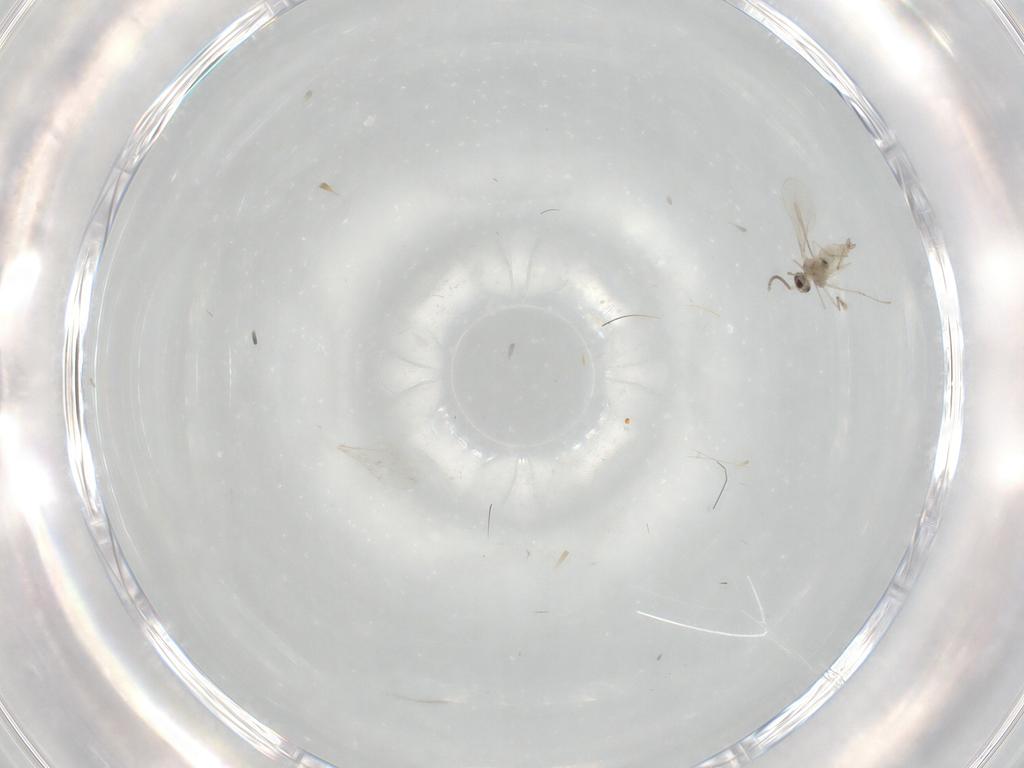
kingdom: Animalia
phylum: Arthropoda
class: Insecta
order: Diptera
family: Cecidomyiidae
